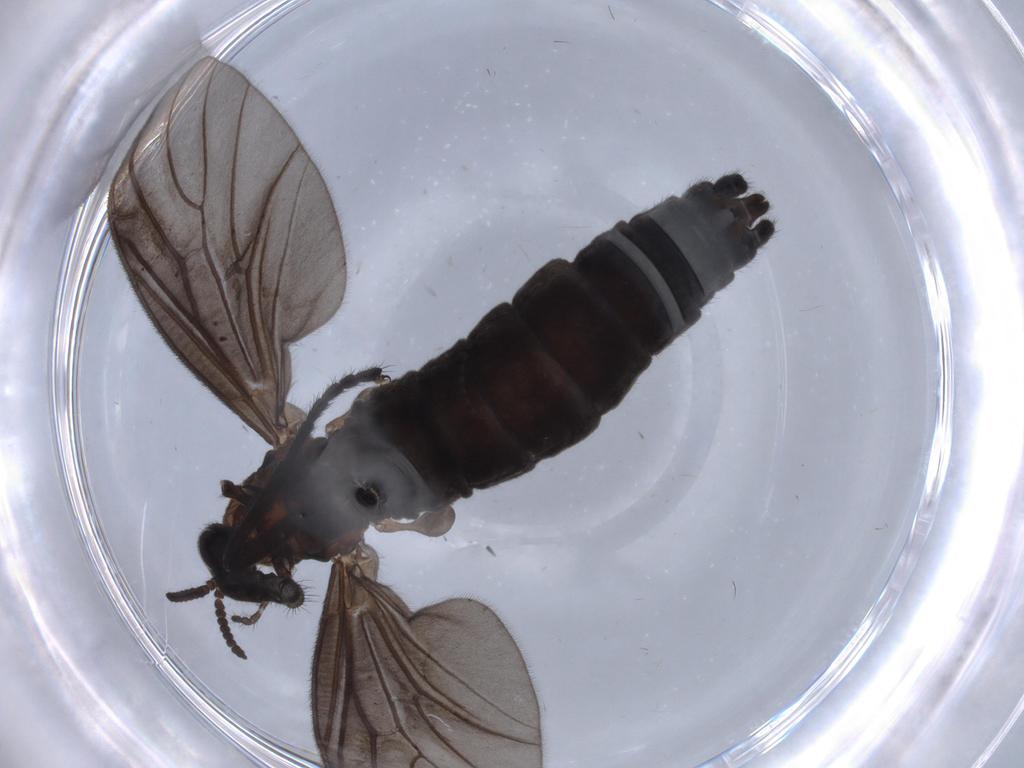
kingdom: Animalia
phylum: Arthropoda
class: Insecta
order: Diptera
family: Bibionidae
